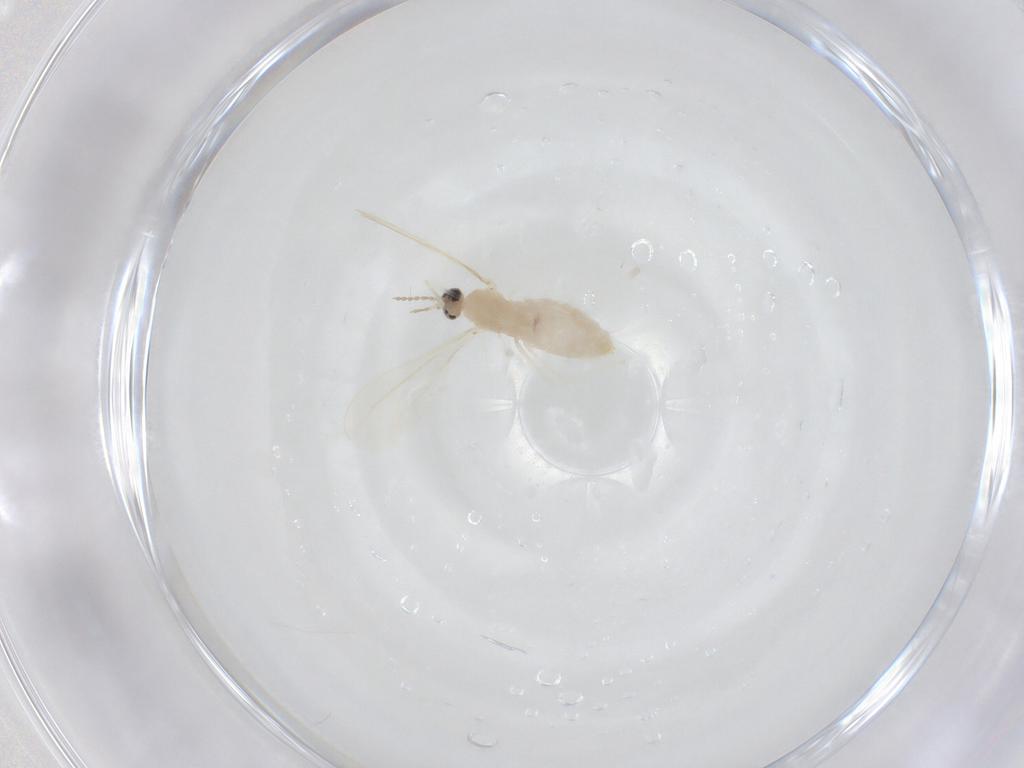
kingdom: Animalia
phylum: Arthropoda
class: Insecta
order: Diptera
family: Cecidomyiidae
